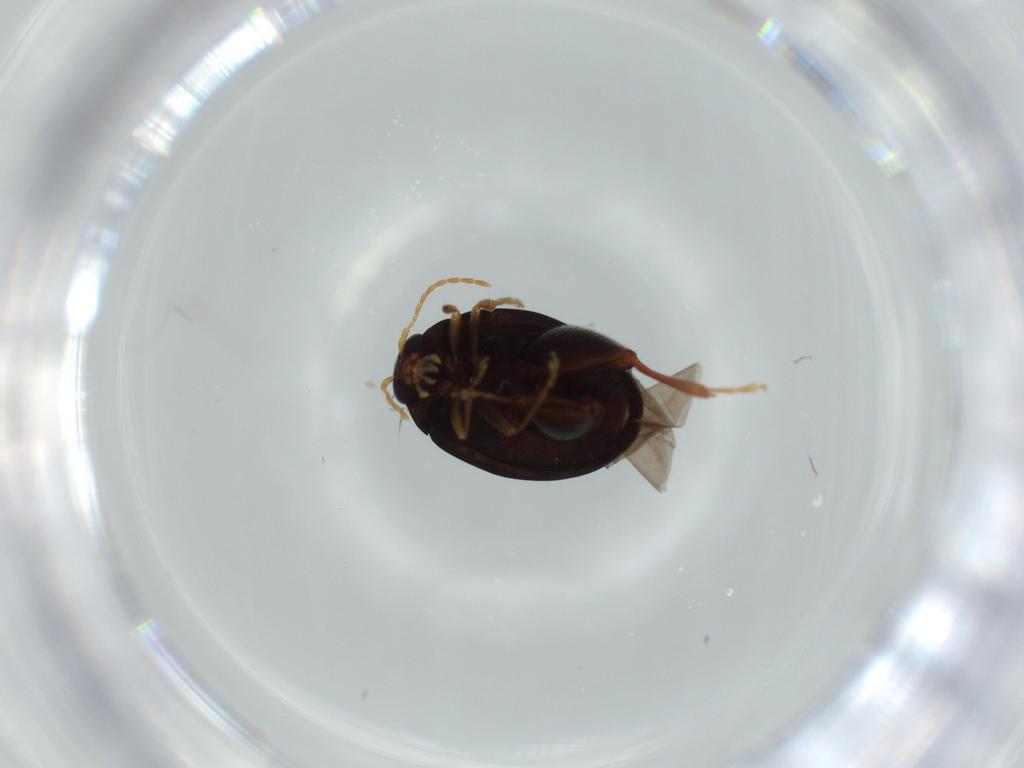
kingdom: Animalia
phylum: Arthropoda
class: Insecta
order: Coleoptera
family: Chrysomelidae
